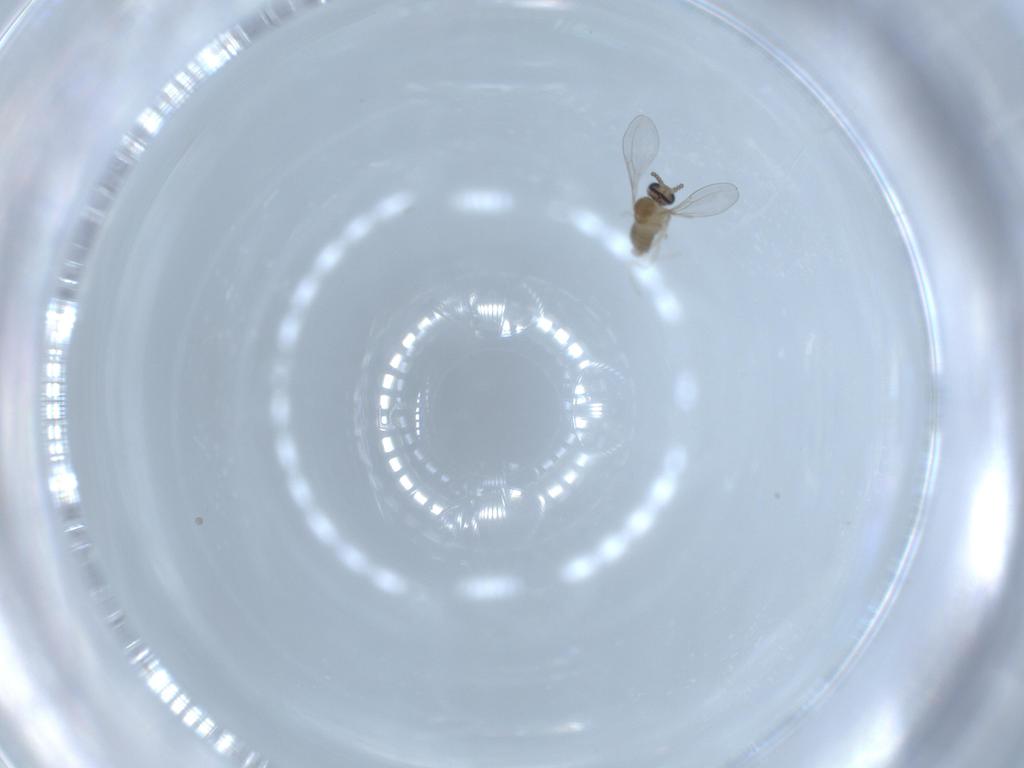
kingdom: Animalia
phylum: Arthropoda
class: Insecta
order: Diptera
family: Cecidomyiidae
